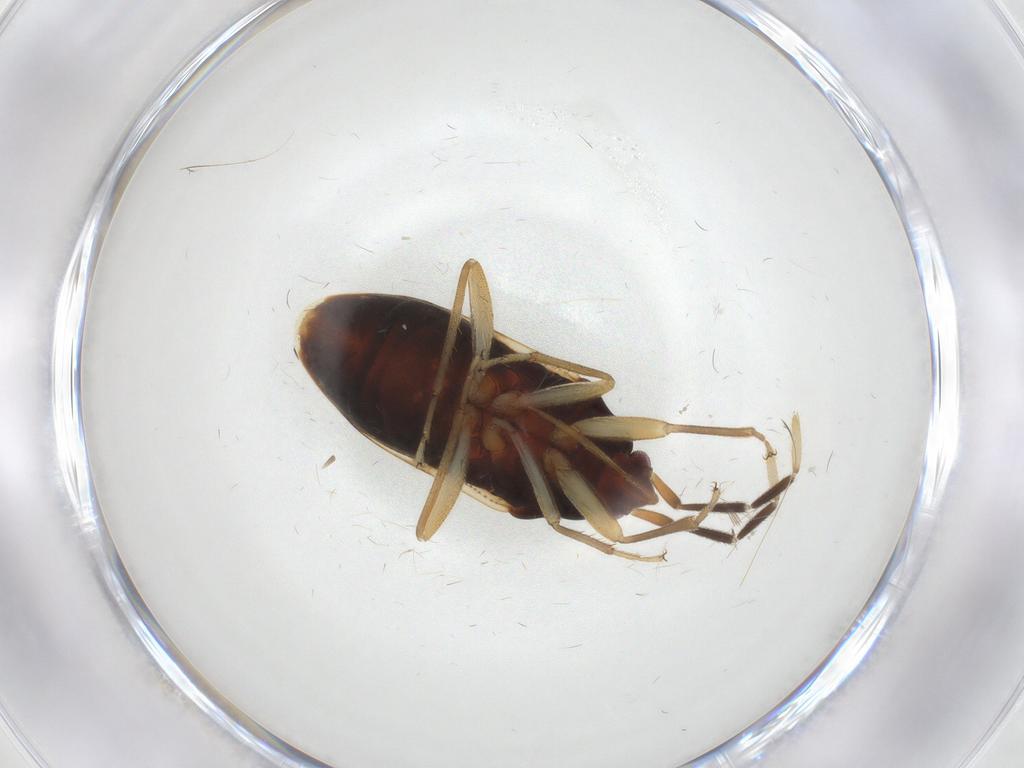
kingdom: Animalia
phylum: Arthropoda
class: Insecta
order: Hemiptera
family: Rhyparochromidae
